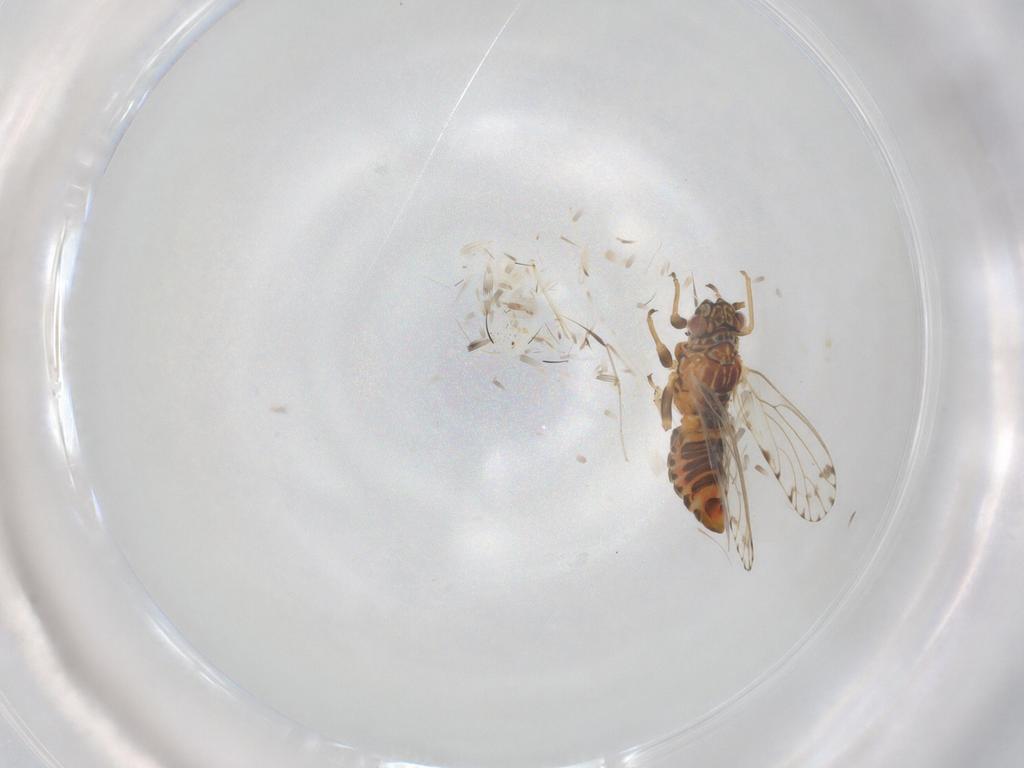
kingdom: Animalia
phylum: Arthropoda
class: Insecta
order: Hemiptera
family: Psyllidae
